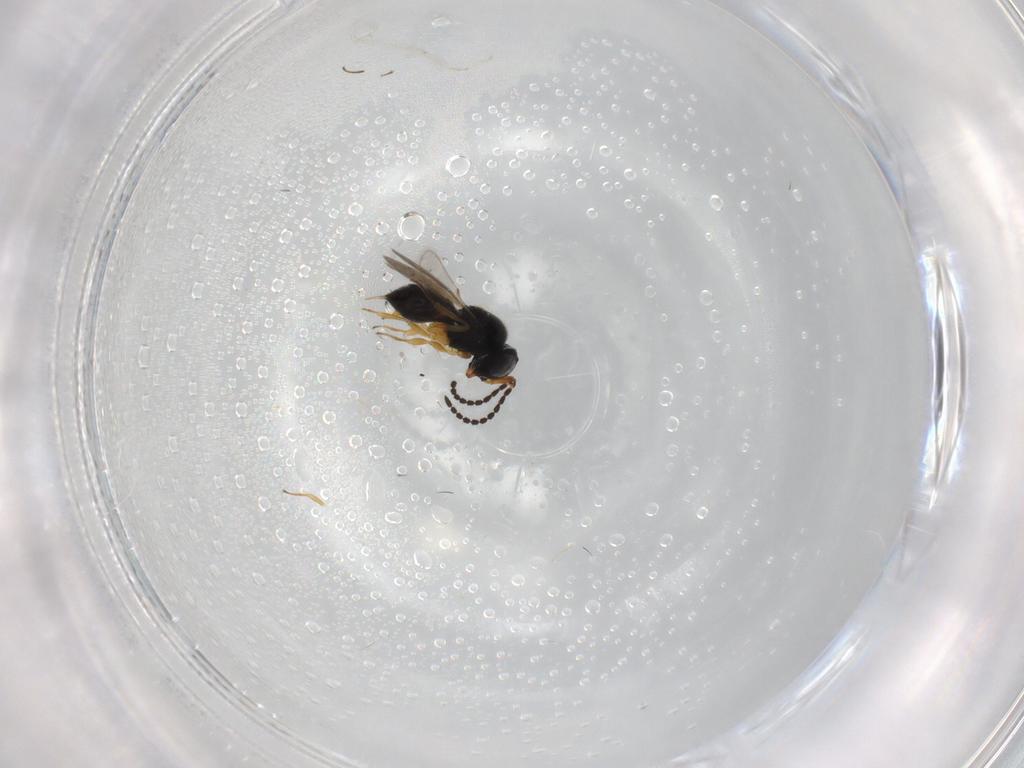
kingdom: Animalia
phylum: Arthropoda
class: Insecta
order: Hymenoptera
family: Scelionidae
